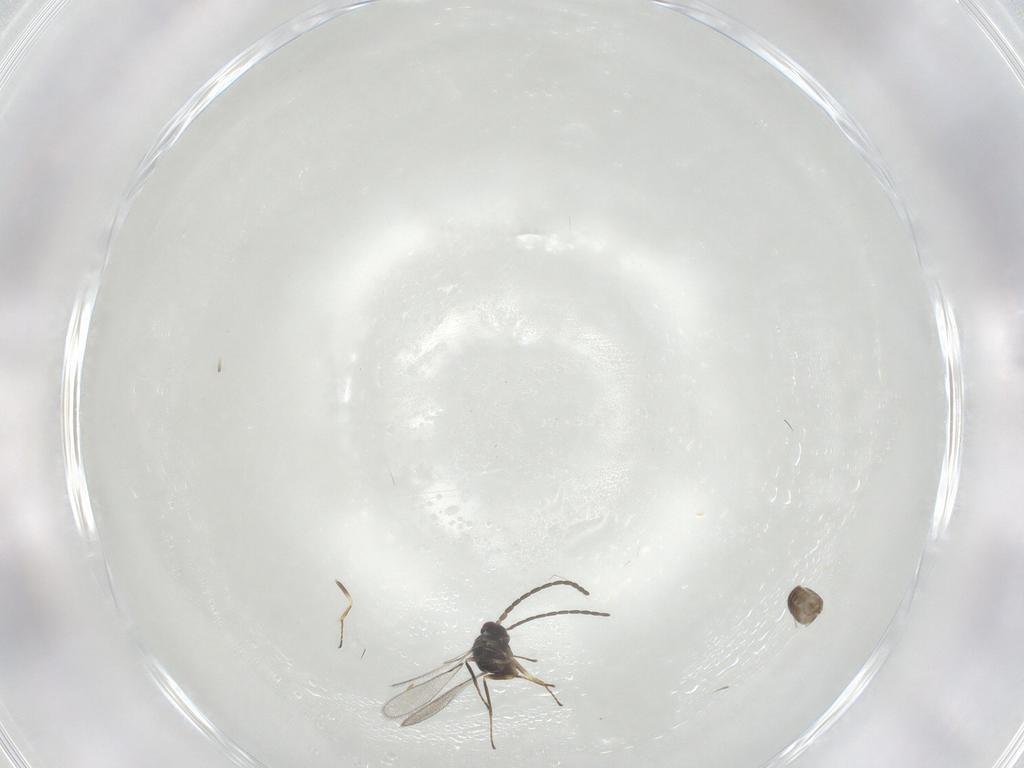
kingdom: Animalia
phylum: Arthropoda
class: Insecta
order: Hymenoptera
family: Mymaridae
